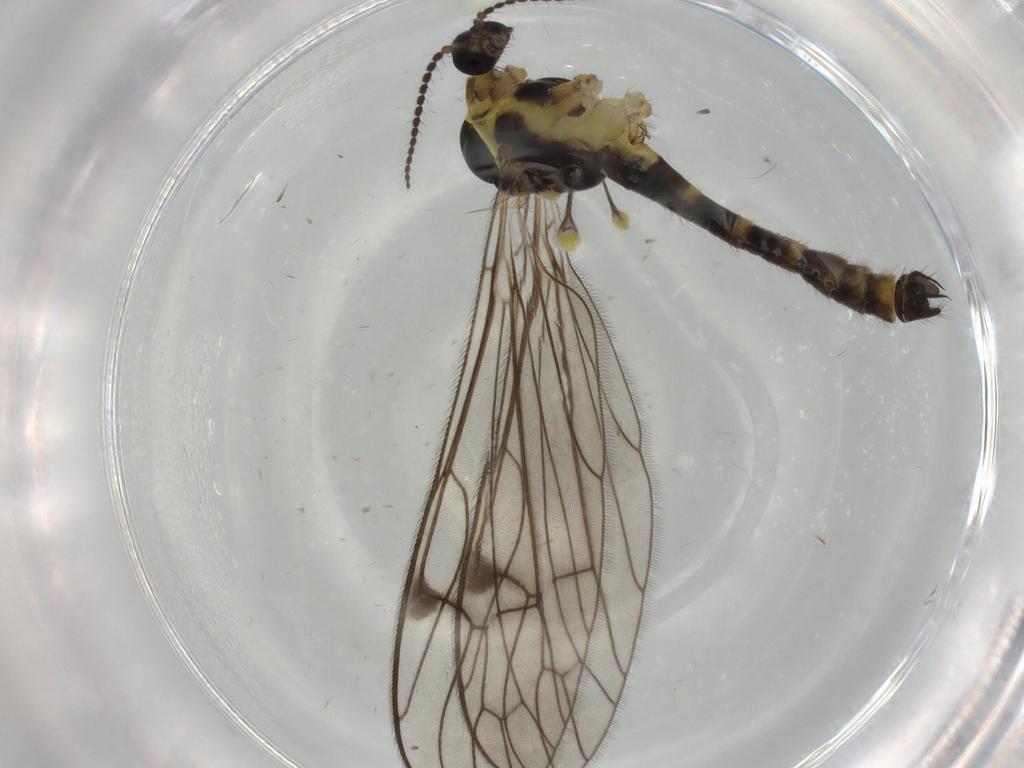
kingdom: Animalia
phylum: Arthropoda
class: Insecta
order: Diptera
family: Limoniidae
